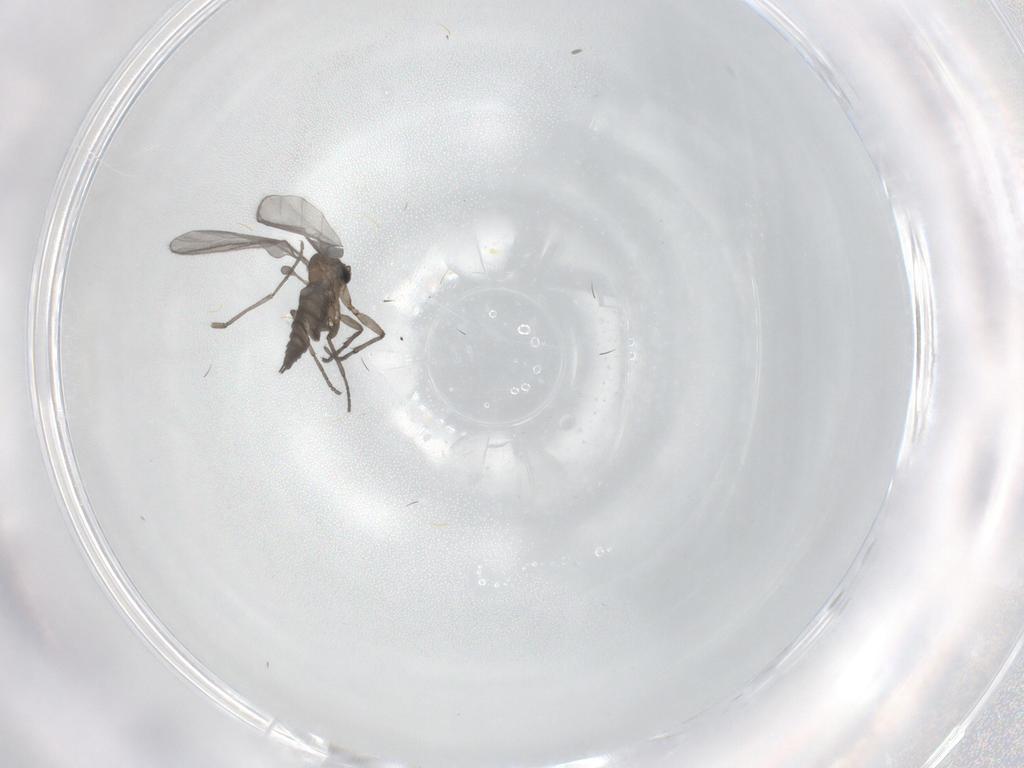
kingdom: Animalia
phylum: Arthropoda
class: Insecta
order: Diptera
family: Sciaridae
